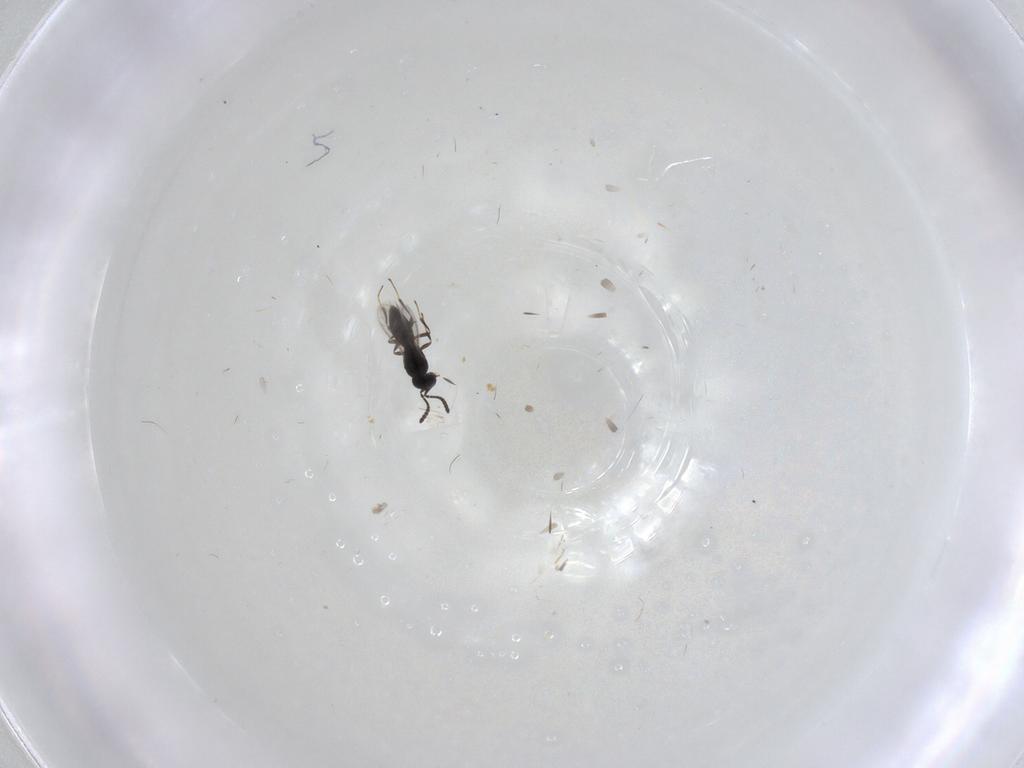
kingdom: Animalia
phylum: Arthropoda
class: Insecta
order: Hymenoptera
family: Scelionidae
